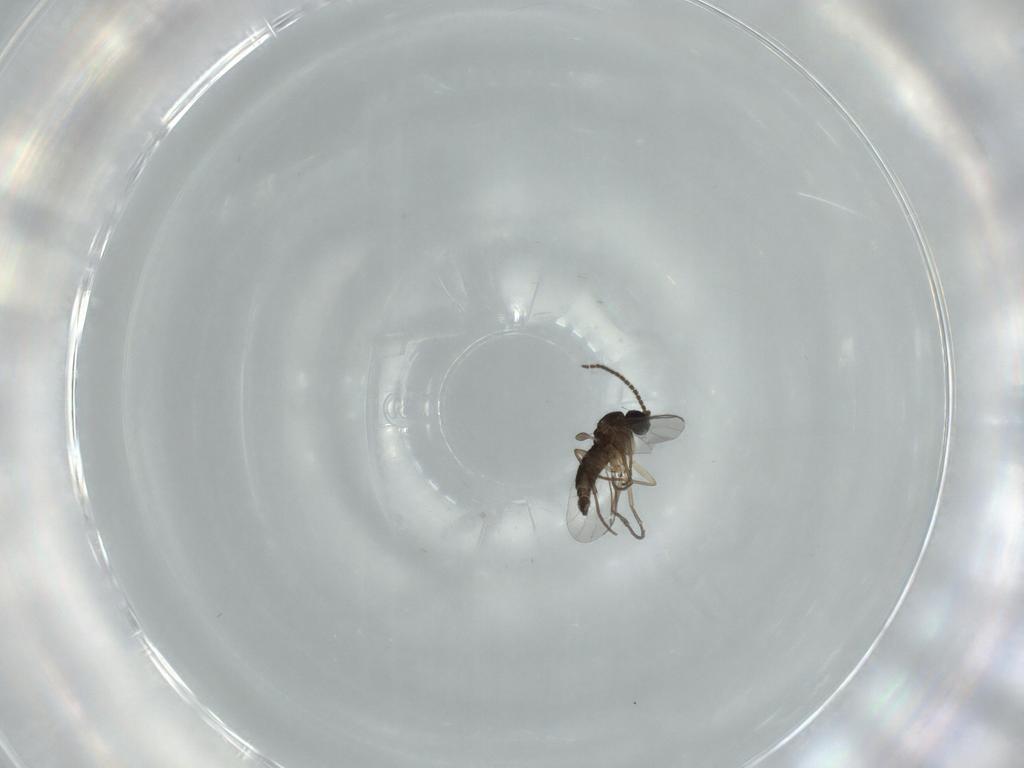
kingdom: Animalia
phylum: Arthropoda
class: Insecta
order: Diptera
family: Sciaridae
